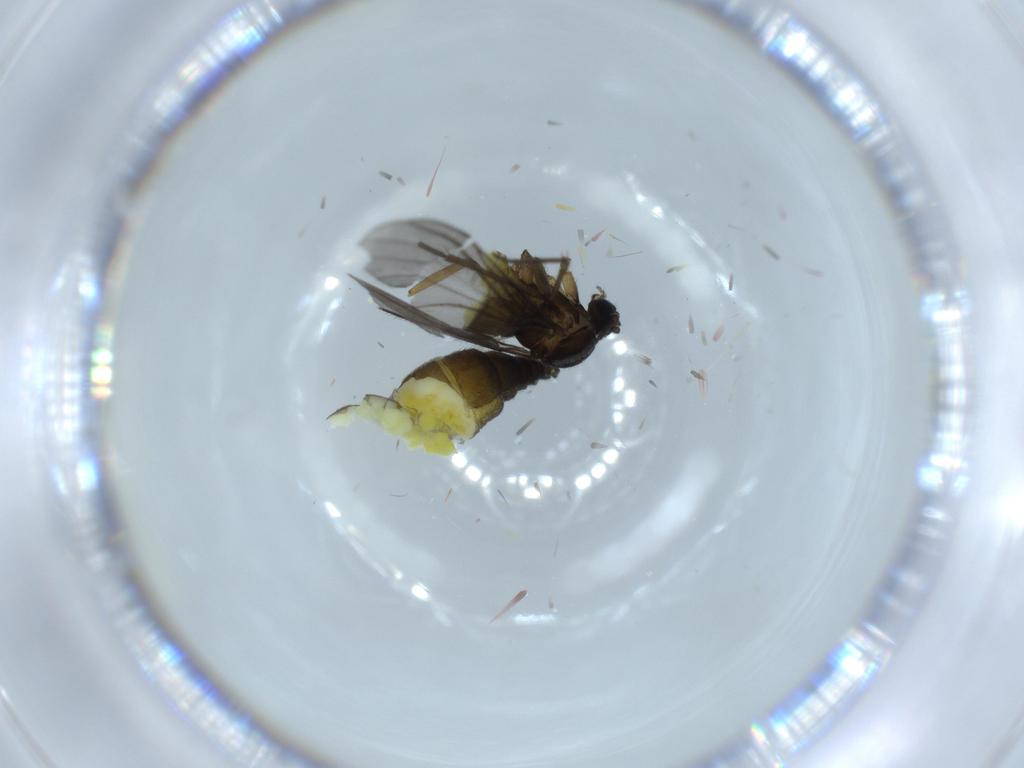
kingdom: Animalia
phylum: Arthropoda
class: Insecta
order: Diptera
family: Sciaridae
